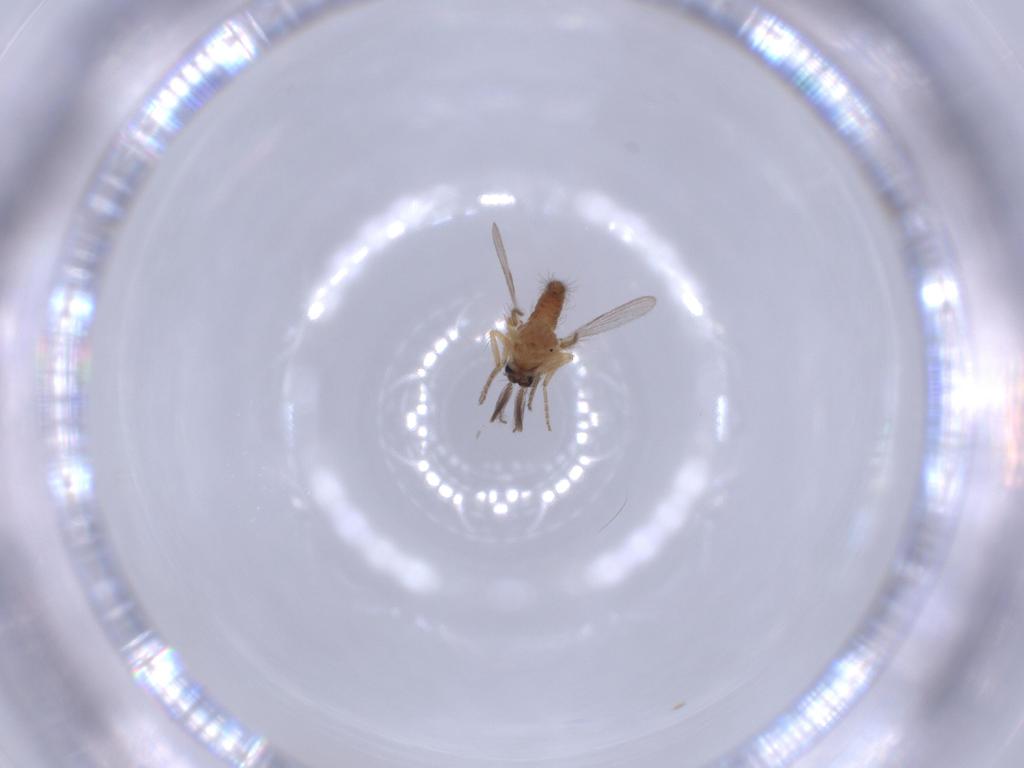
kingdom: Animalia
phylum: Arthropoda
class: Insecta
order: Diptera
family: Ceratopogonidae
